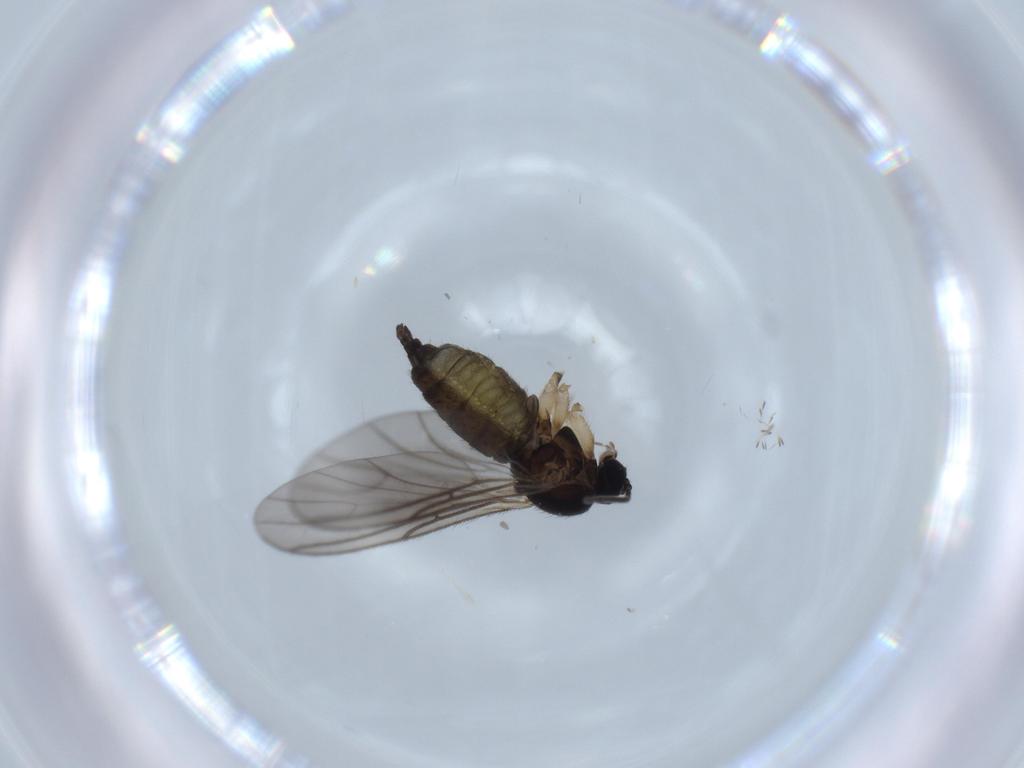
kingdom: Animalia
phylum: Arthropoda
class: Insecta
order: Diptera
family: Sciaridae
